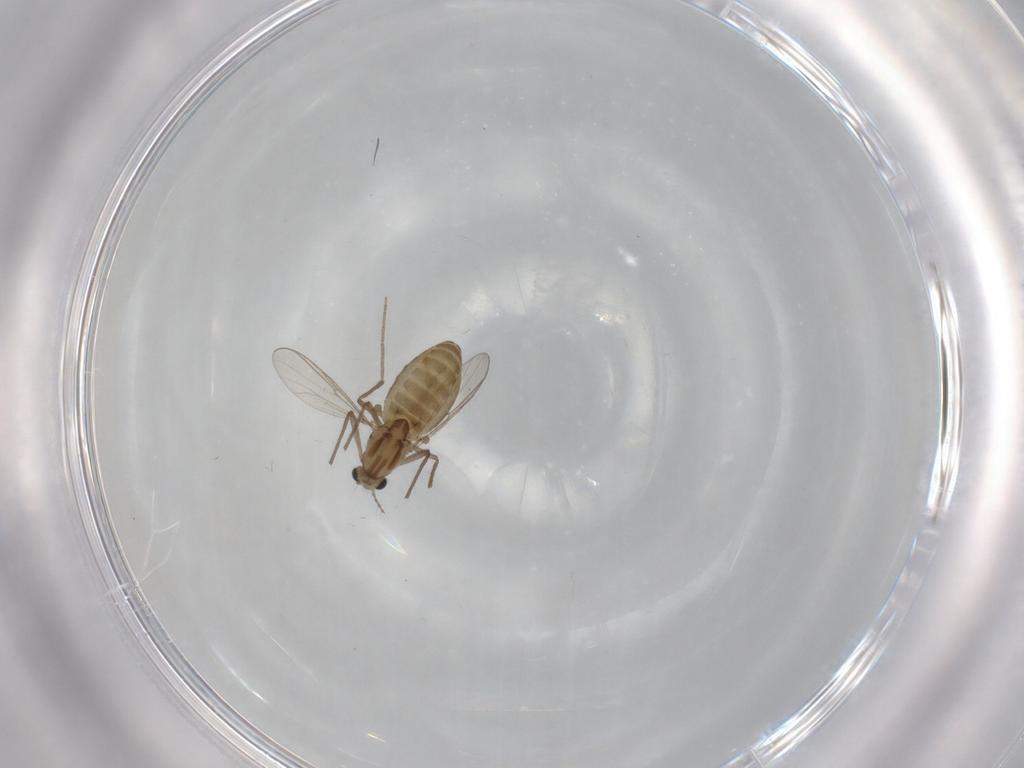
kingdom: Animalia
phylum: Arthropoda
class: Insecta
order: Diptera
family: Chironomidae
